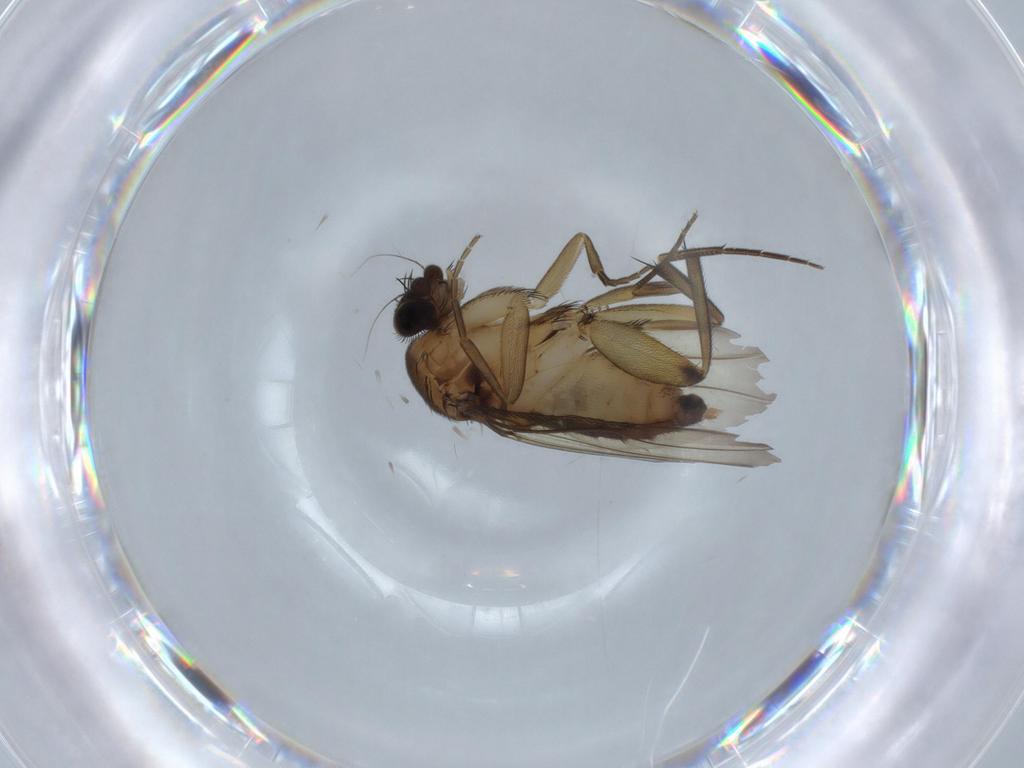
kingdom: Animalia
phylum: Arthropoda
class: Insecta
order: Diptera
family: Phoridae
